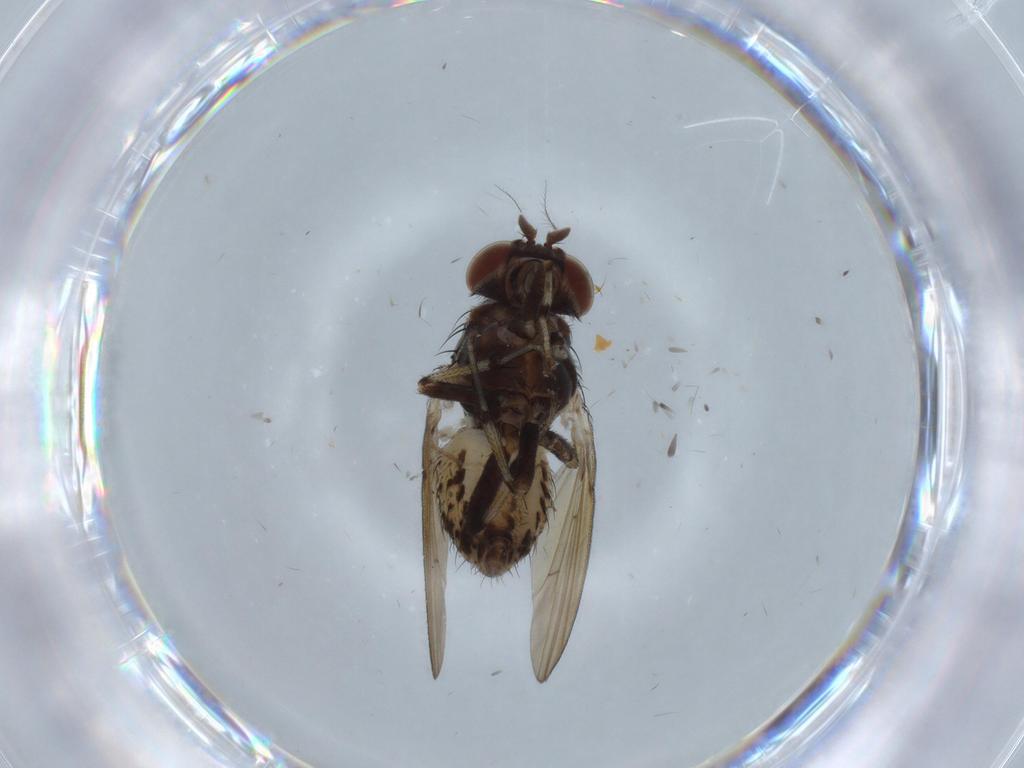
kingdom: Animalia
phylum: Arthropoda
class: Insecta
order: Diptera
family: Chironomidae
